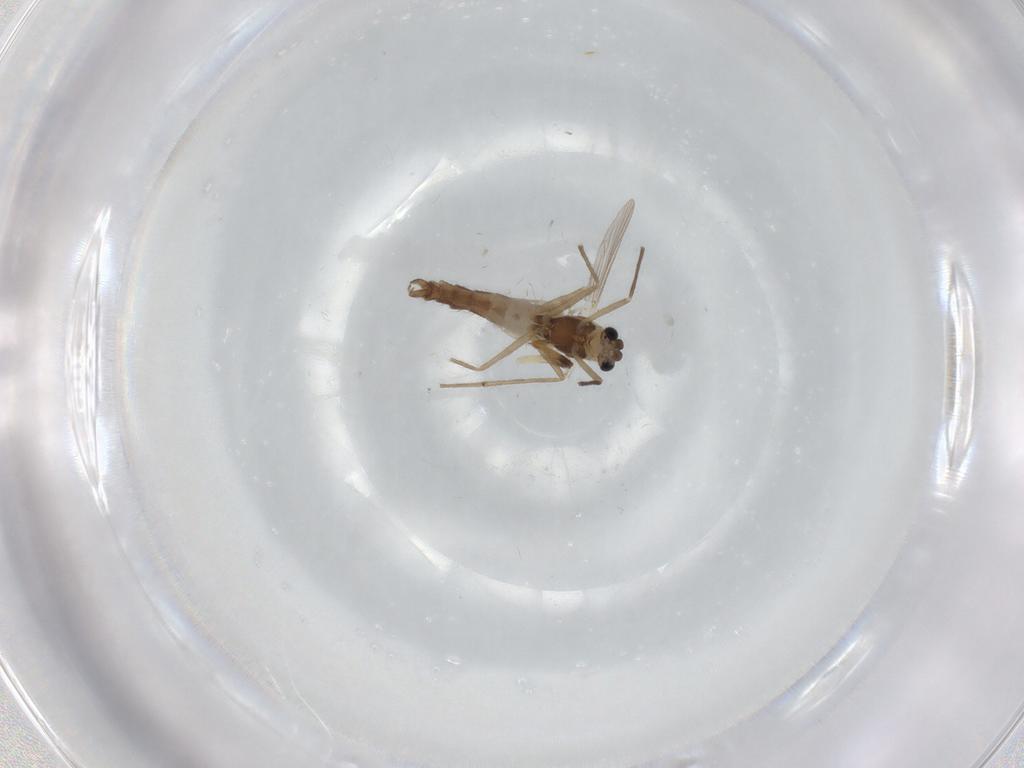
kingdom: Animalia
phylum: Arthropoda
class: Insecta
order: Diptera
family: Chironomidae
